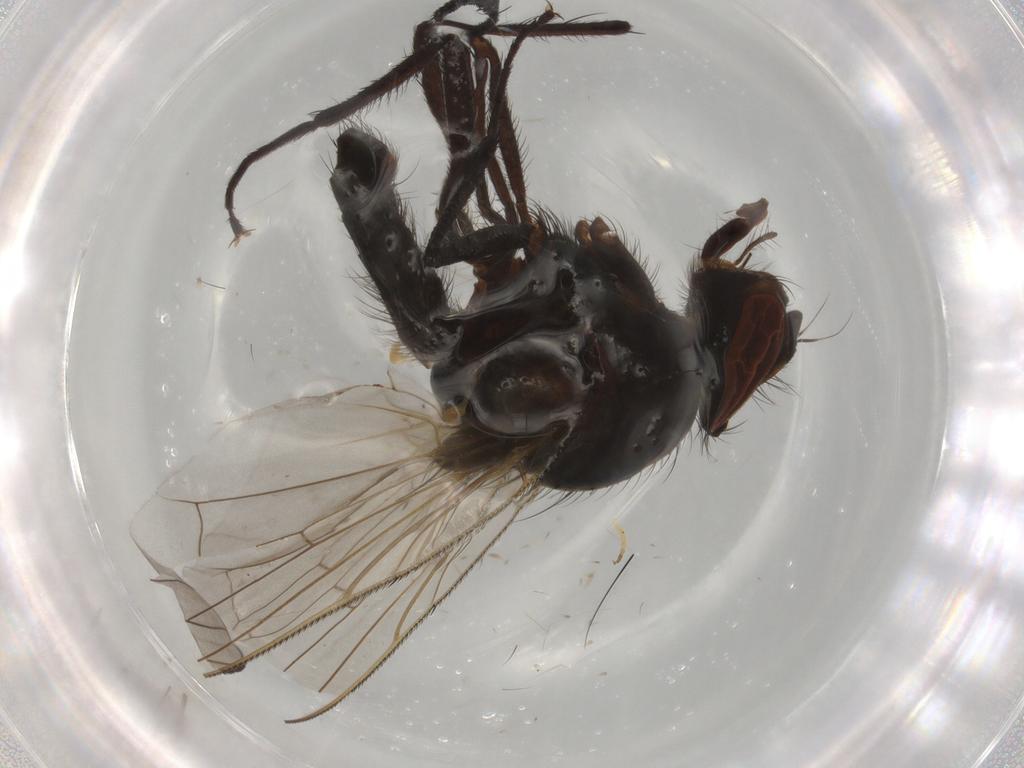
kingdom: Animalia
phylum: Arthropoda
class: Insecta
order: Diptera
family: Muscidae
